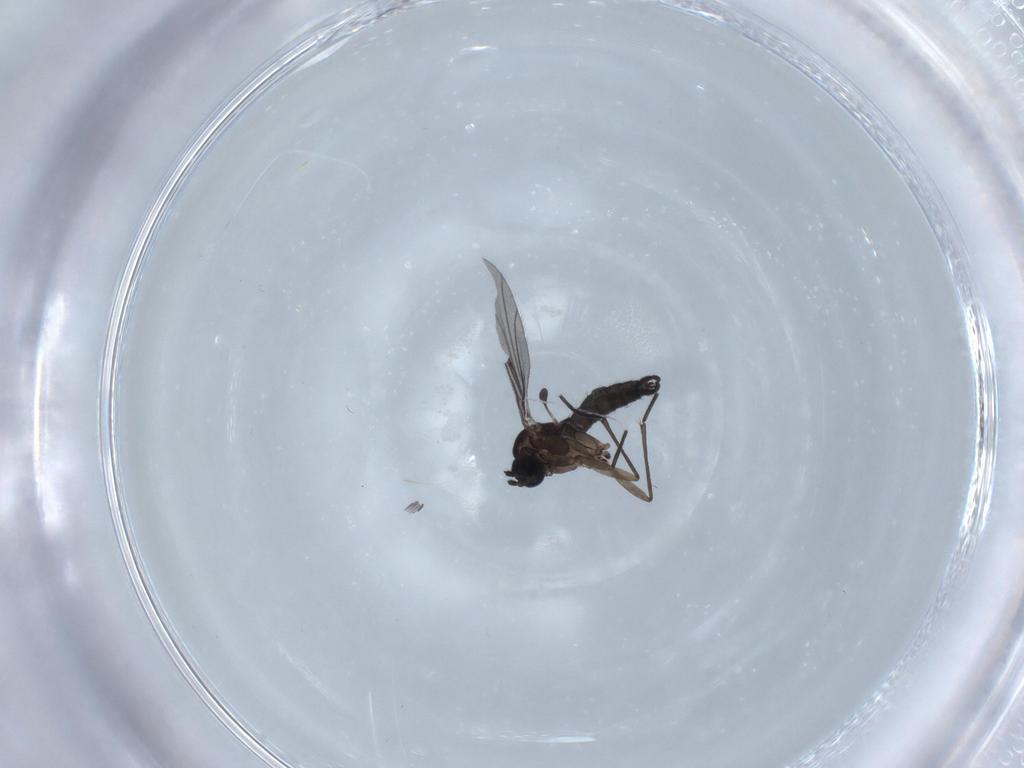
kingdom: Animalia
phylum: Arthropoda
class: Insecta
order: Diptera
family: Sciaridae
